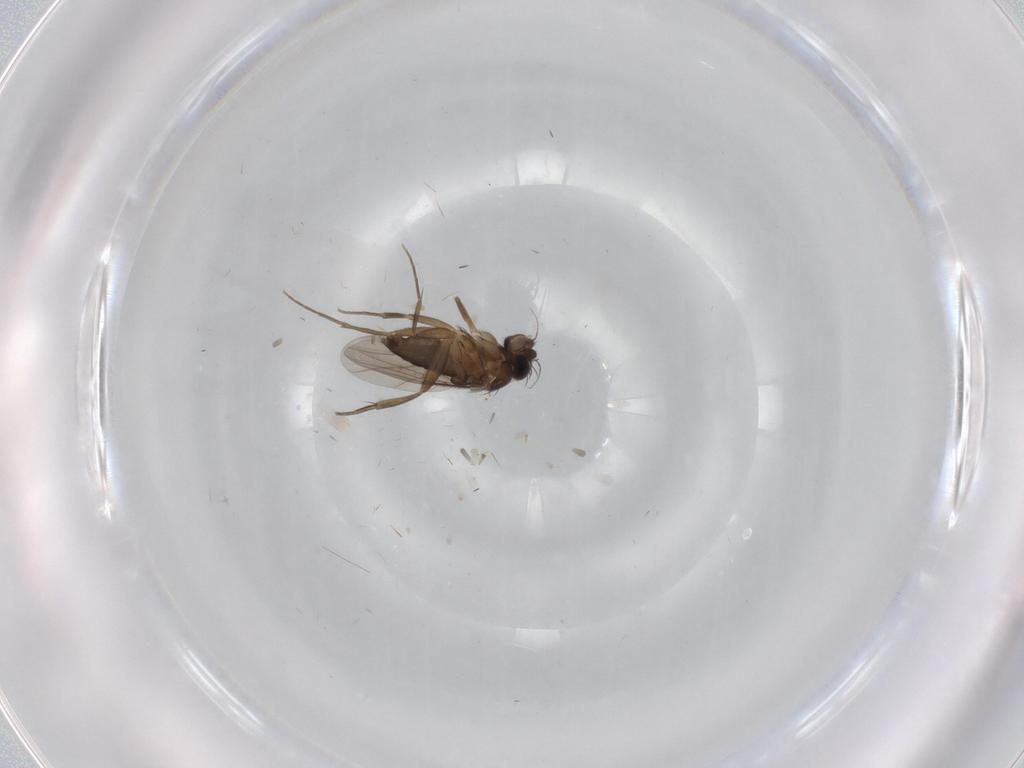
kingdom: Animalia
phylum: Arthropoda
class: Insecta
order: Diptera
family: Phoridae
